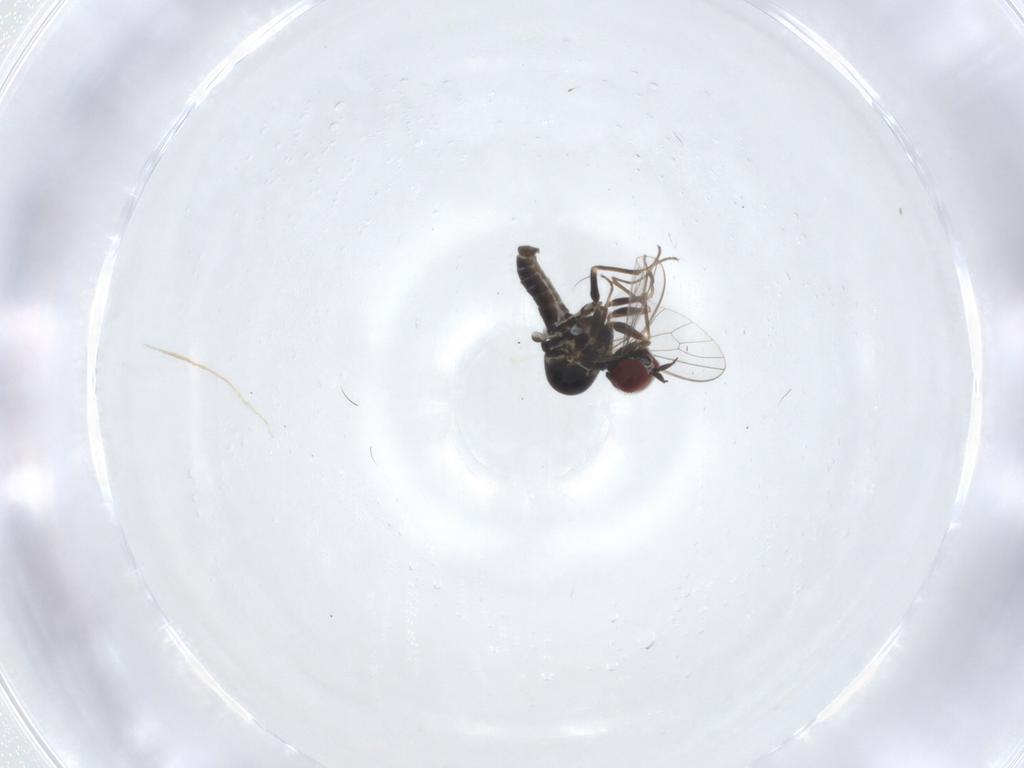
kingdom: Animalia
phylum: Arthropoda
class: Insecta
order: Diptera
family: Mythicomyiidae
